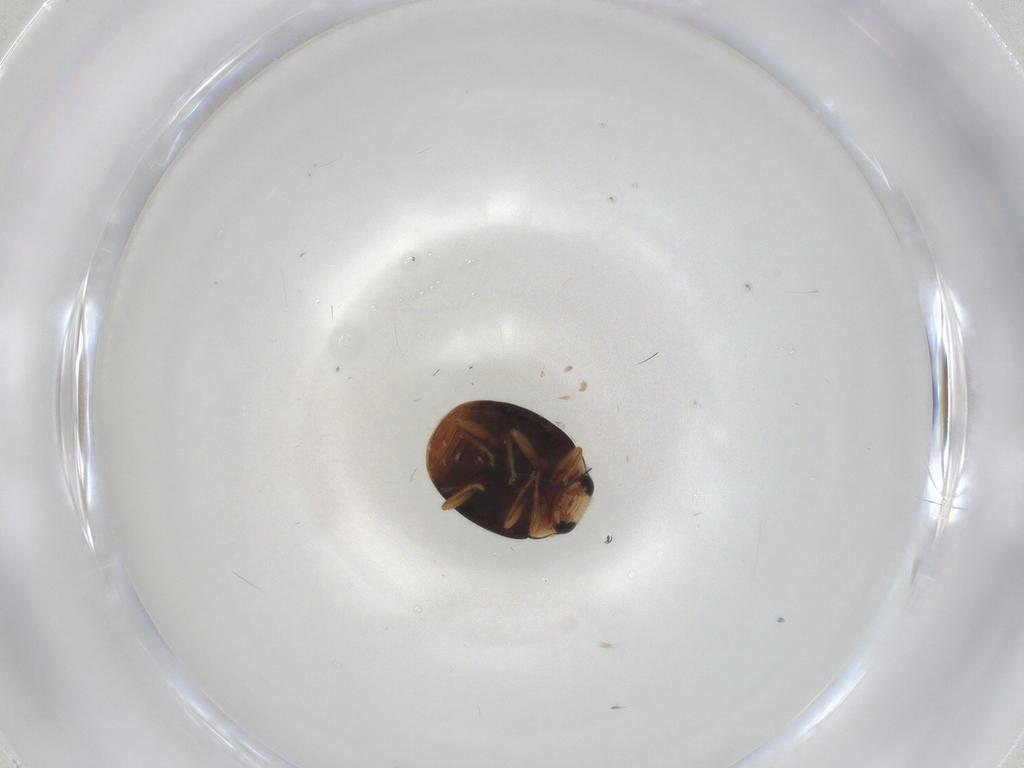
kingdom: Animalia
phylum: Arthropoda
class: Insecta
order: Coleoptera
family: Coccinellidae
